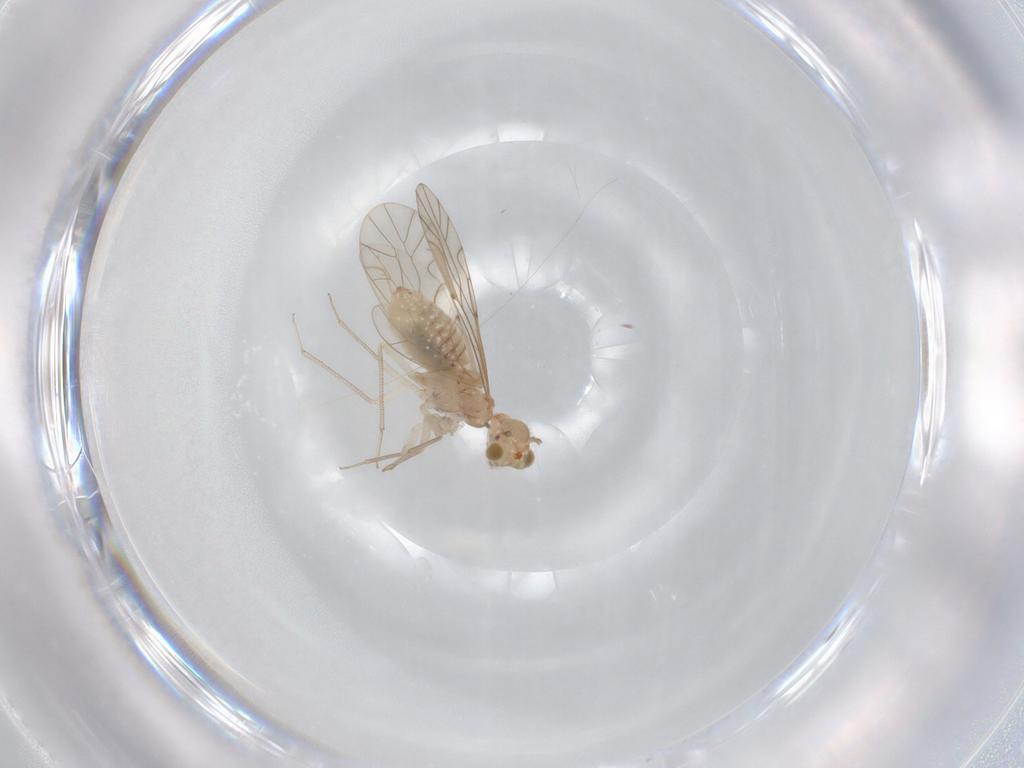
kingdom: Animalia
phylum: Arthropoda
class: Insecta
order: Psocodea
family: Lachesillidae
